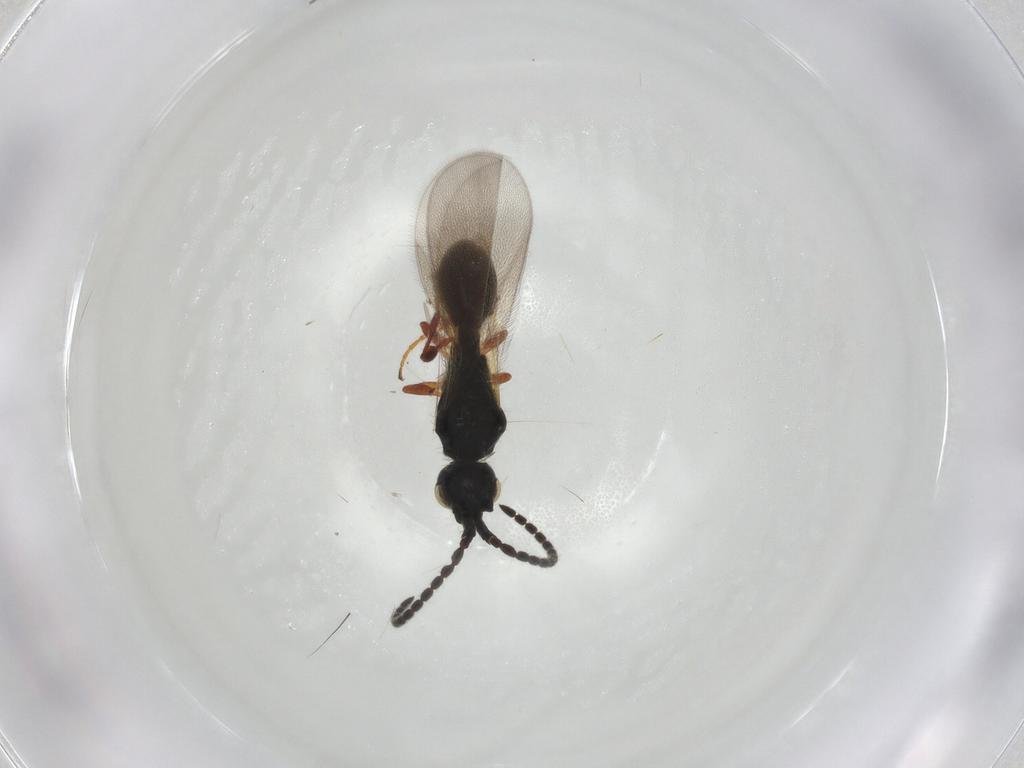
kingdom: Animalia
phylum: Arthropoda
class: Insecta
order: Hymenoptera
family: Diapriidae
